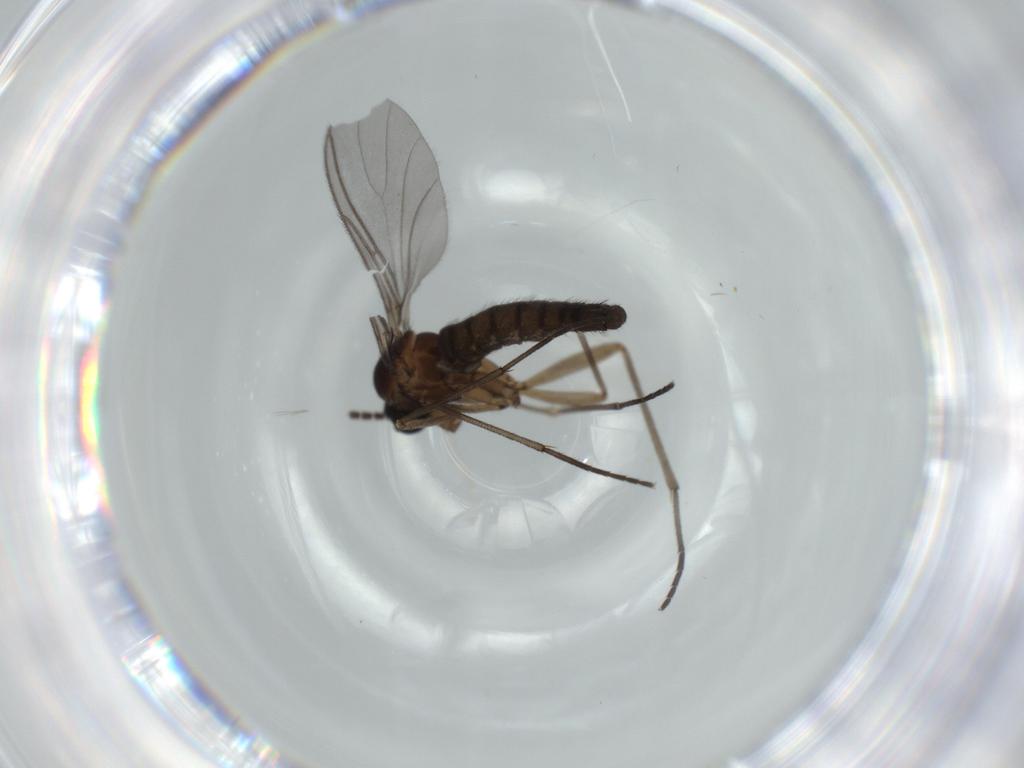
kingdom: Animalia
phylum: Arthropoda
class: Insecta
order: Diptera
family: Sciaridae
